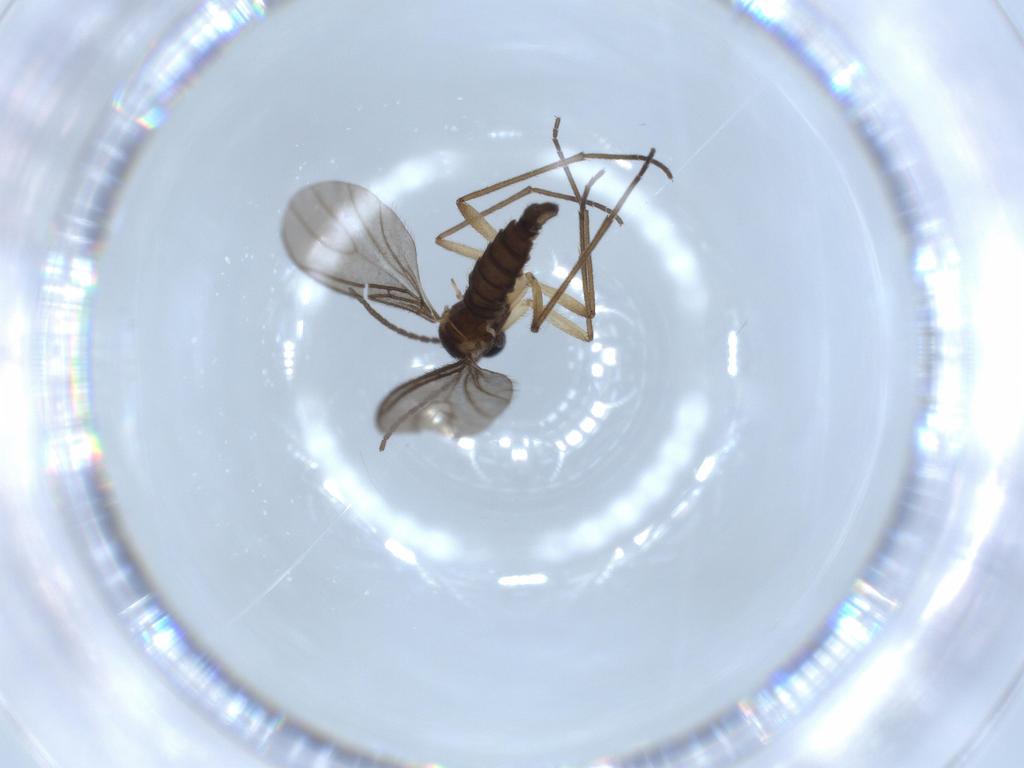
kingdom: Animalia
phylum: Arthropoda
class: Insecta
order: Diptera
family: Sciaridae
